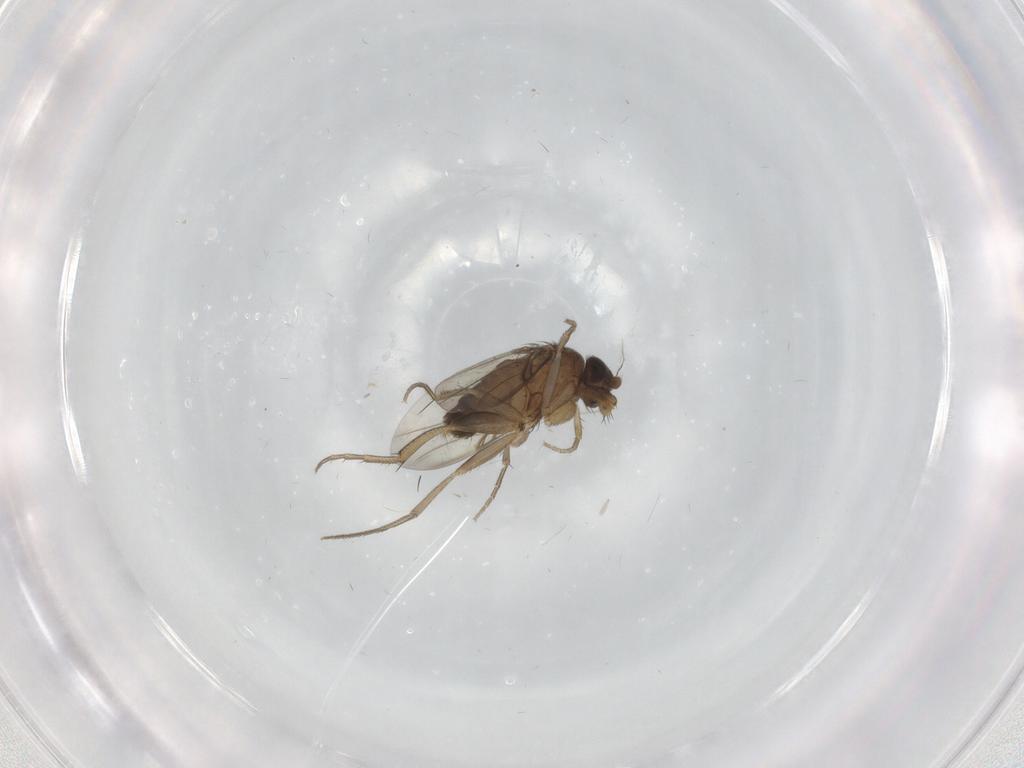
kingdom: Animalia
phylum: Arthropoda
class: Insecta
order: Diptera
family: Phoridae
